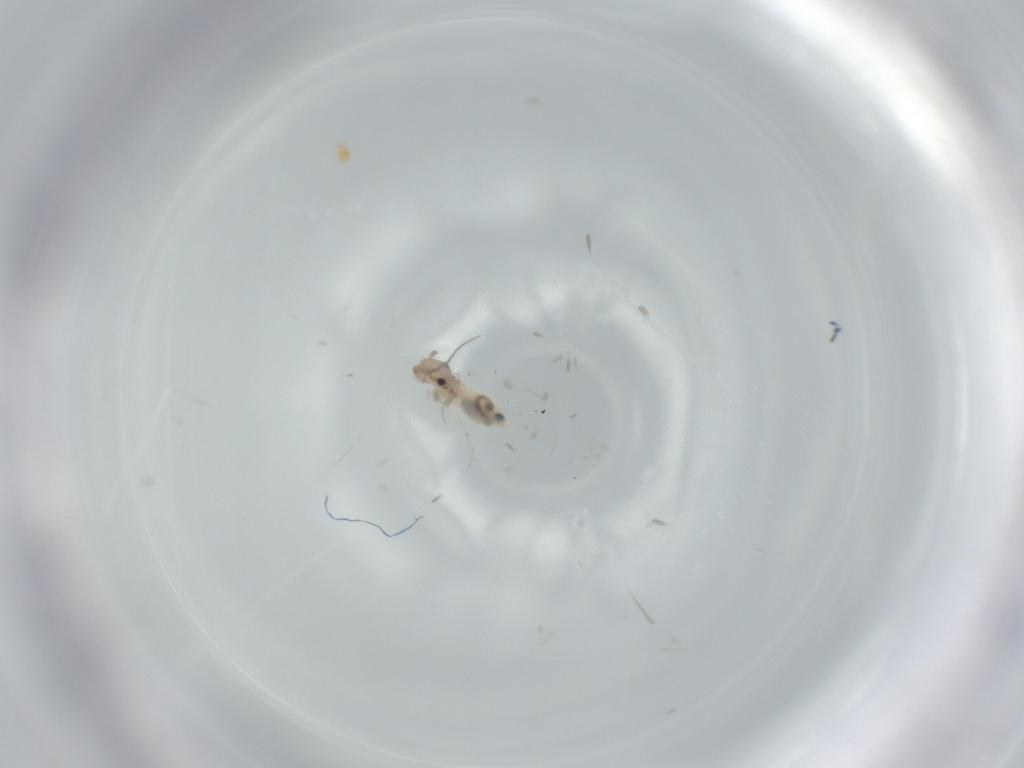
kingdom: Animalia
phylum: Arthropoda
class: Insecta
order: Psocodea
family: Lepidopsocidae
